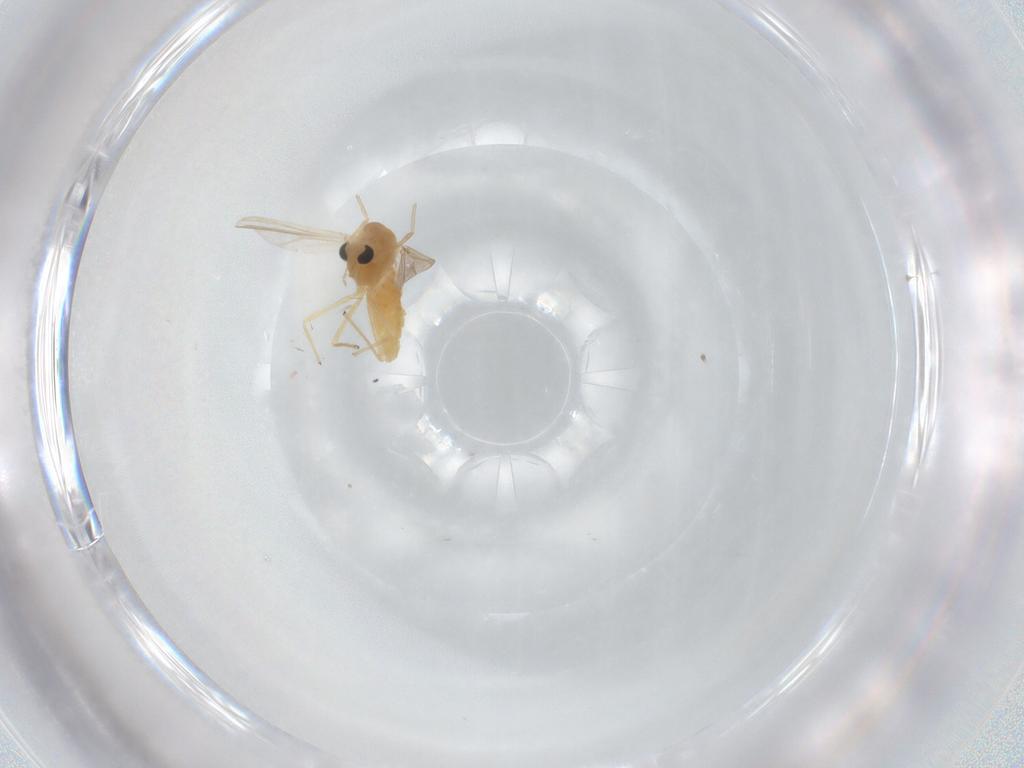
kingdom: Animalia
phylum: Arthropoda
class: Insecta
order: Diptera
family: Chironomidae
